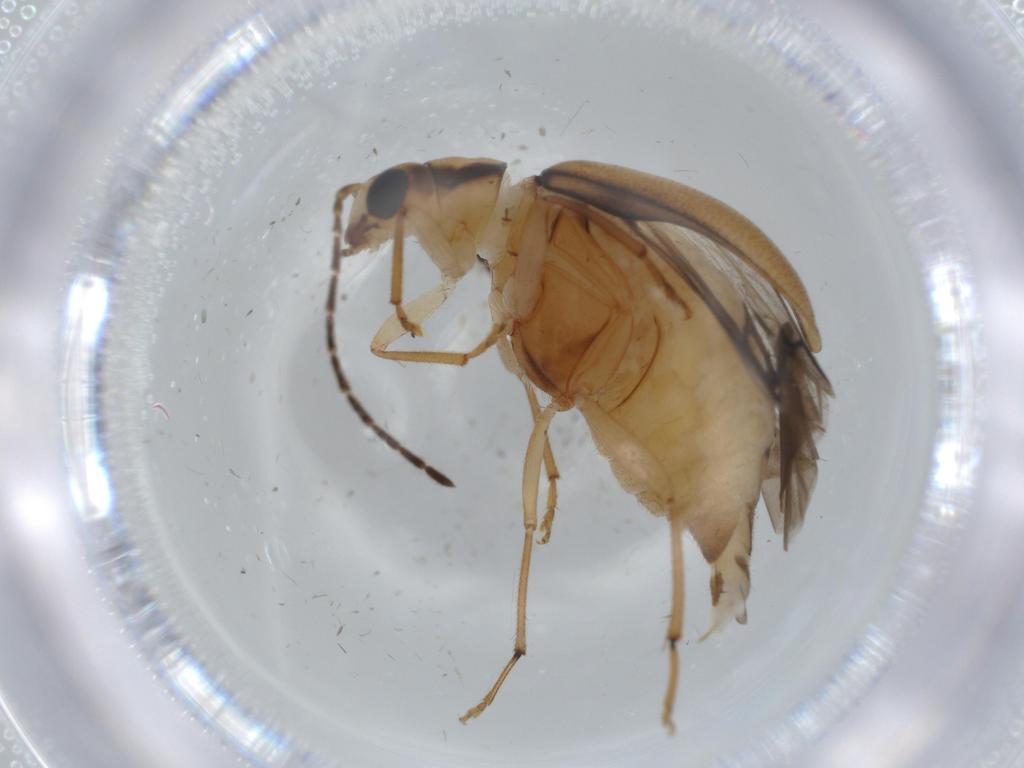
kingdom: Animalia
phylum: Arthropoda
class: Insecta
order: Coleoptera
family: Chrysomelidae
